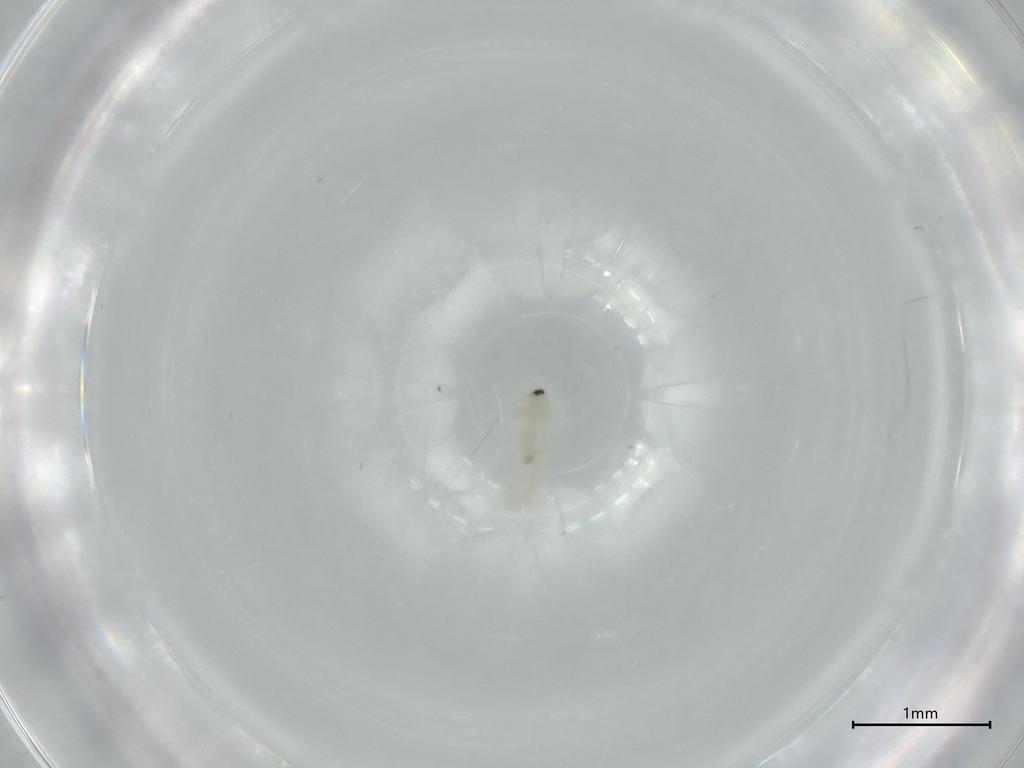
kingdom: Animalia
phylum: Arthropoda
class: Insecta
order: Hemiptera
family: Aleyrodidae
